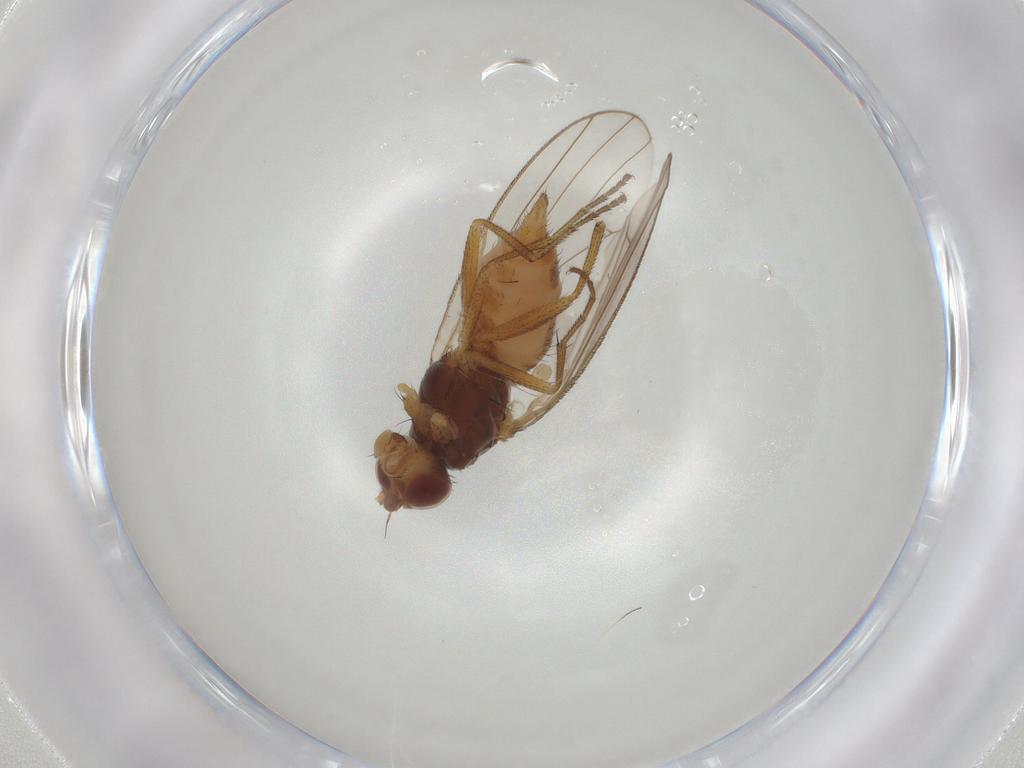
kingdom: Animalia
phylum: Arthropoda
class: Insecta
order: Diptera
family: Heleomyzidae
